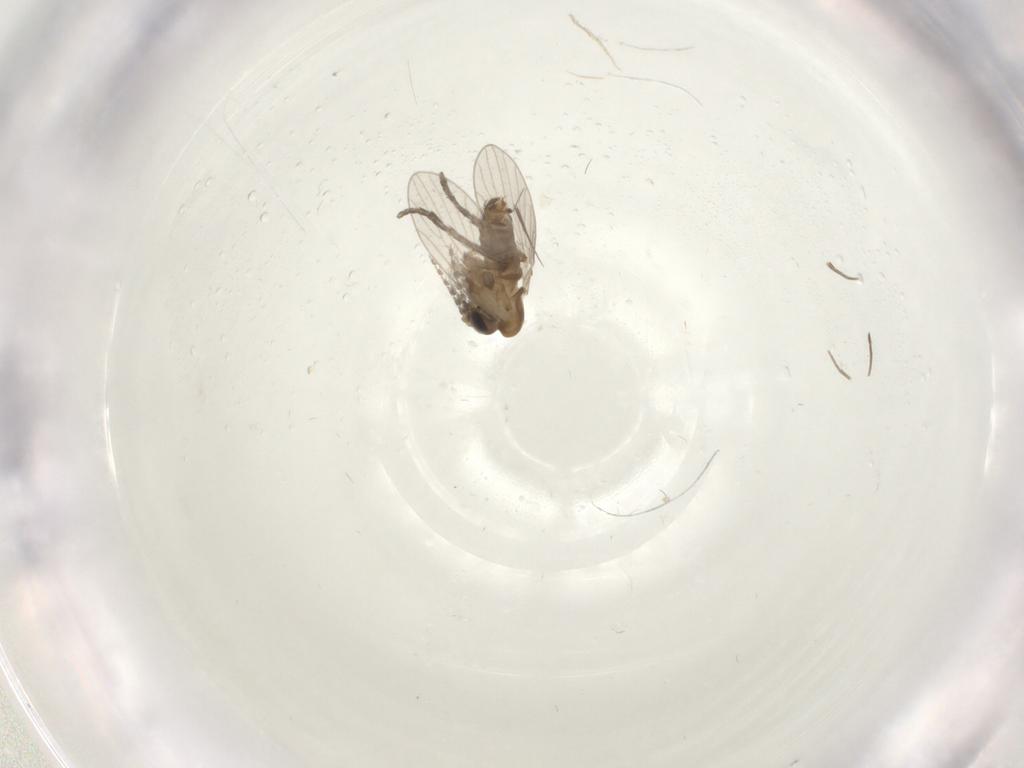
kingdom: Animalia
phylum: Arthropoda
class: Insecta
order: Diptera
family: Psychodidae
